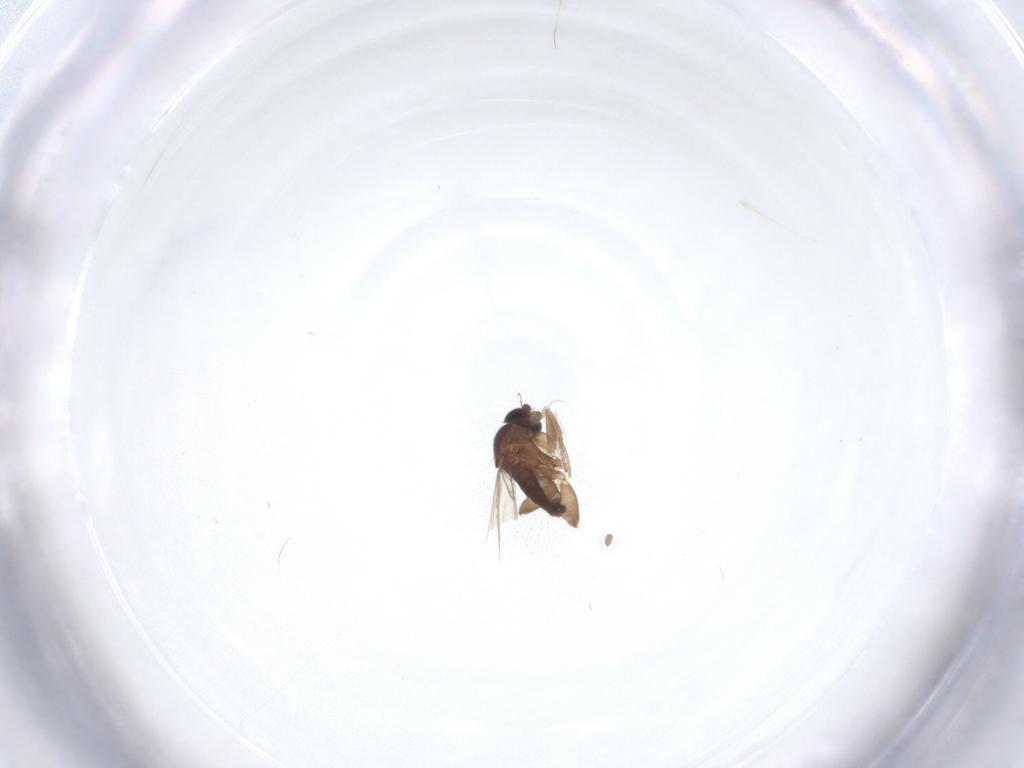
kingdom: Animalia
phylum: Arthropoda
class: Insecta
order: Diptera
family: Phoridae
